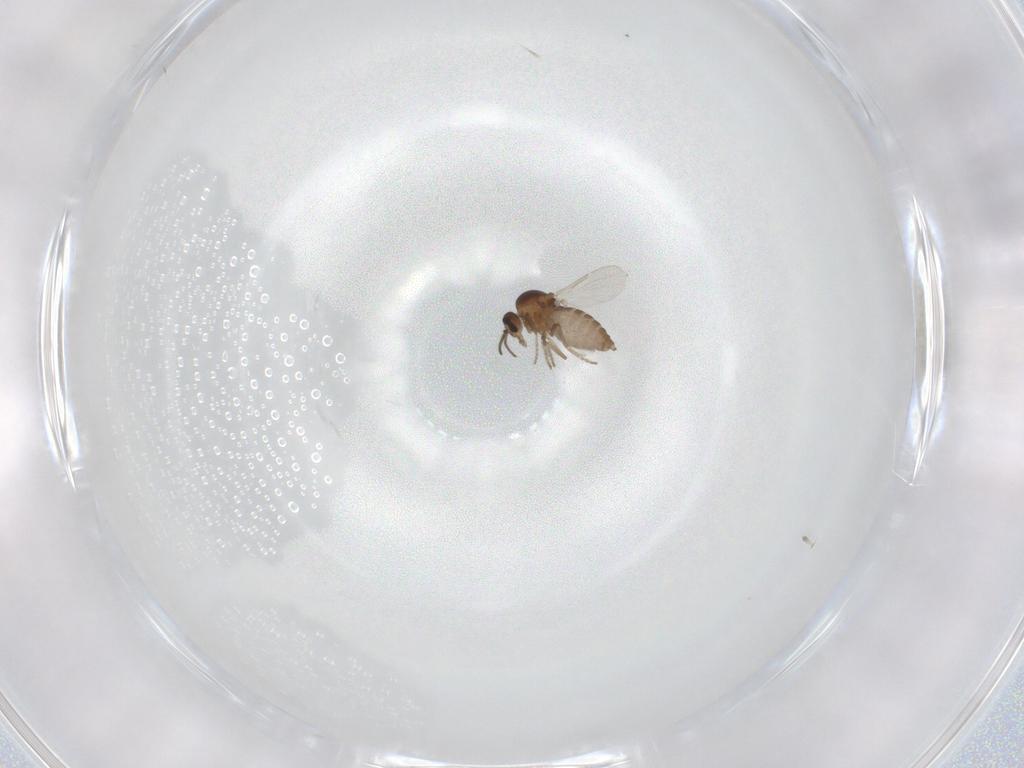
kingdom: Animalia
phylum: Arthropoda
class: Insecta
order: Diptera
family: Ceratopogonidae
